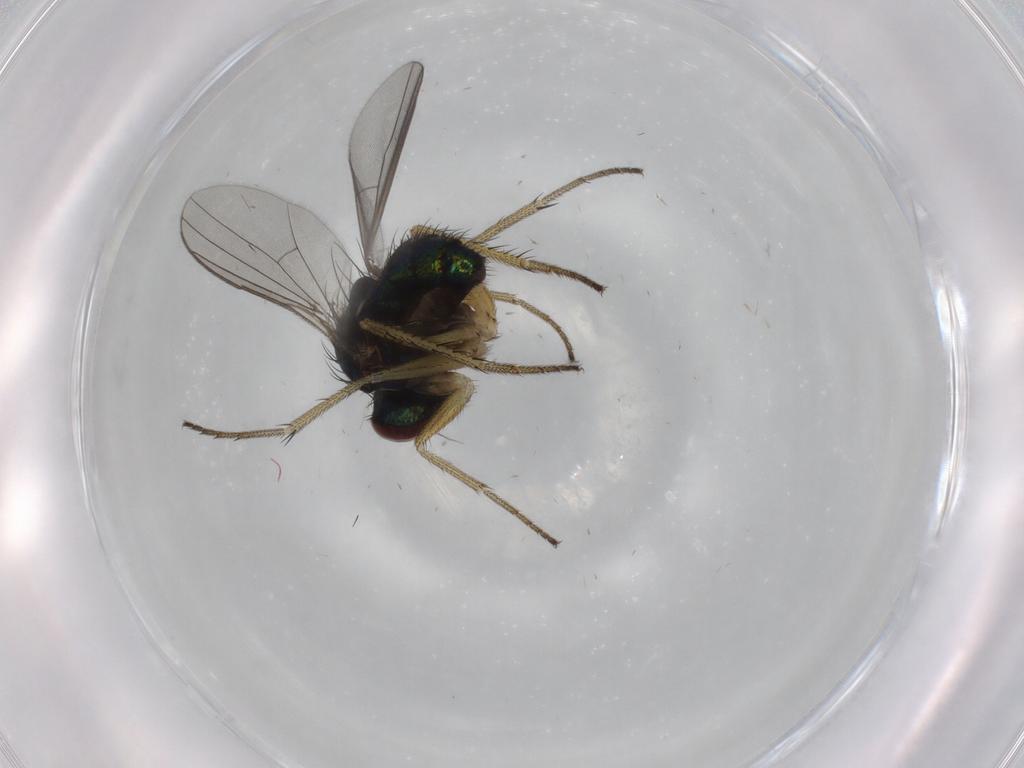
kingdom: Animalia
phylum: Arthropoda
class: Insecta
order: Diptera
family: Dolichopodidae
